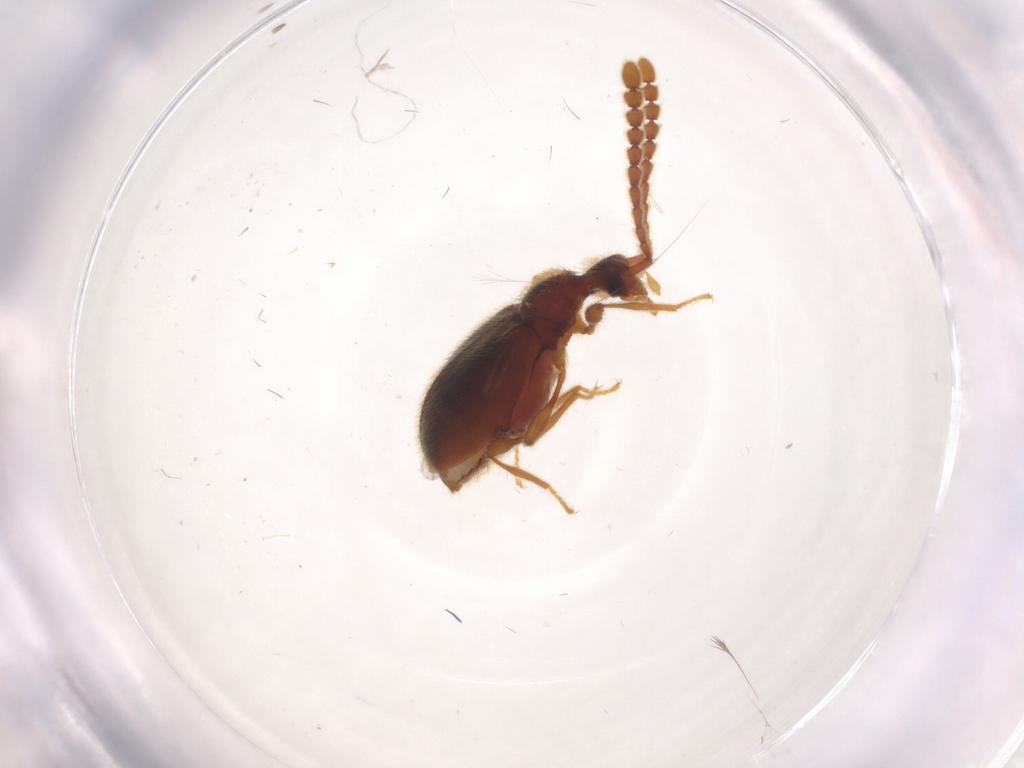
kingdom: Animalia
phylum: Arthropoda
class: Insecta
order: Coleoptera
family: Staphylinidae
